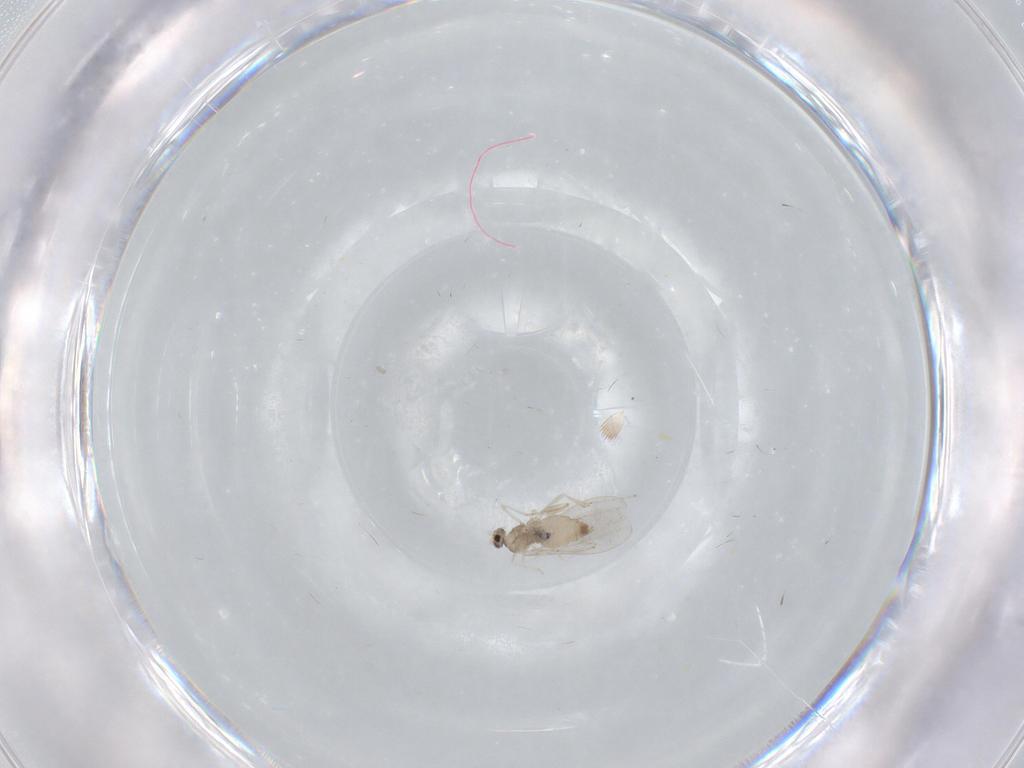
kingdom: Animalia
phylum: Arthropoda
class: Insecta
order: Diptera
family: Cecidomyiidae
